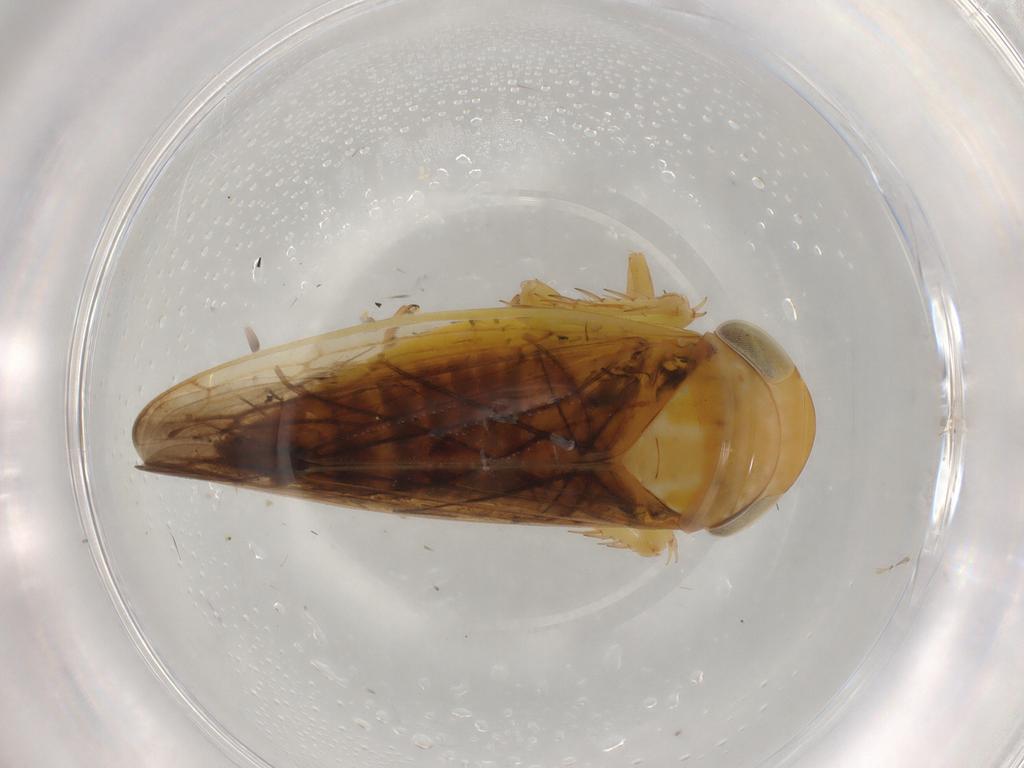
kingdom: Animalia
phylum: Arthropoda
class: Insecta
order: Hemiptera
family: Cicadellidae
